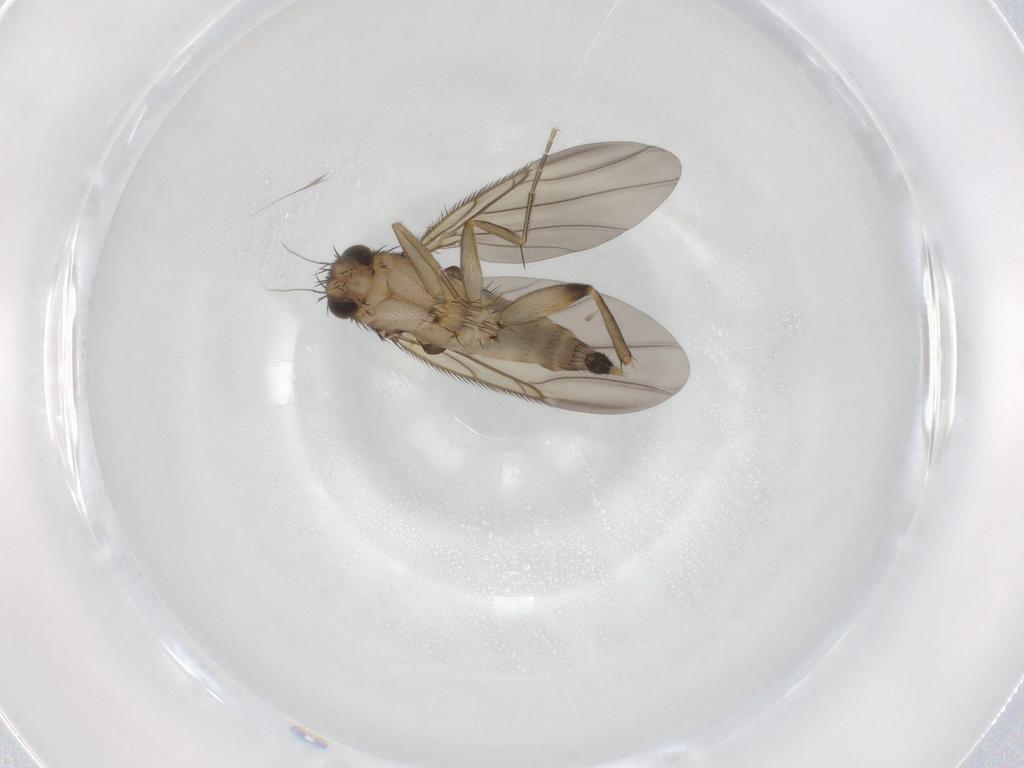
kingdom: Animalia
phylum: Arthropoda
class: Insecta
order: Diptera
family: Phoridae
